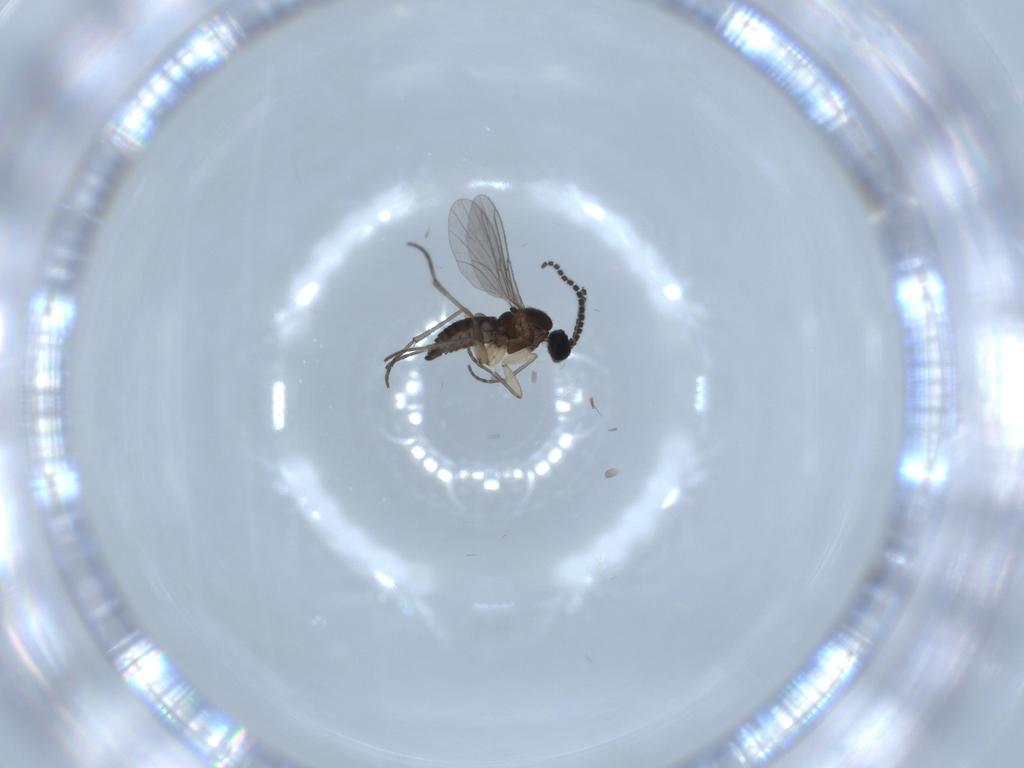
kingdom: Animalia
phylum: Arthropoda
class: Insecta
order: Diptera
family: Sciaridae
